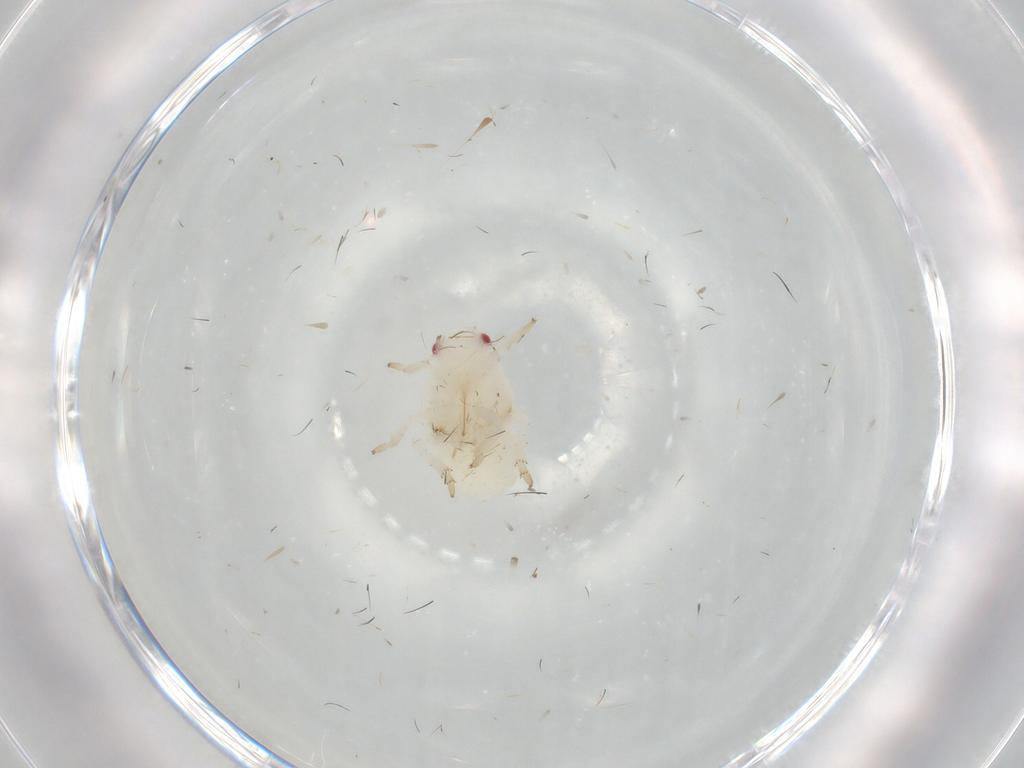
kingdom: Animalia
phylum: Arthropoda
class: Insecta
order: Hemiptera
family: Flatidae
